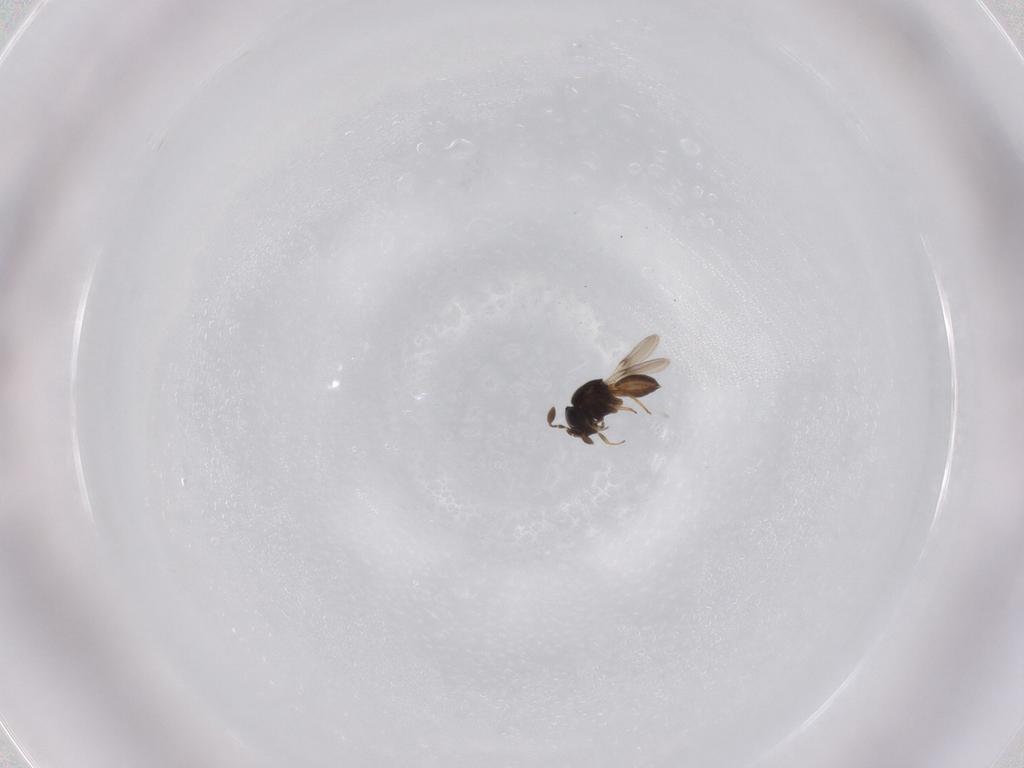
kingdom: Animalia
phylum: Arthropoda
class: Insecta
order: Hymenoptera
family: Scelionidae
